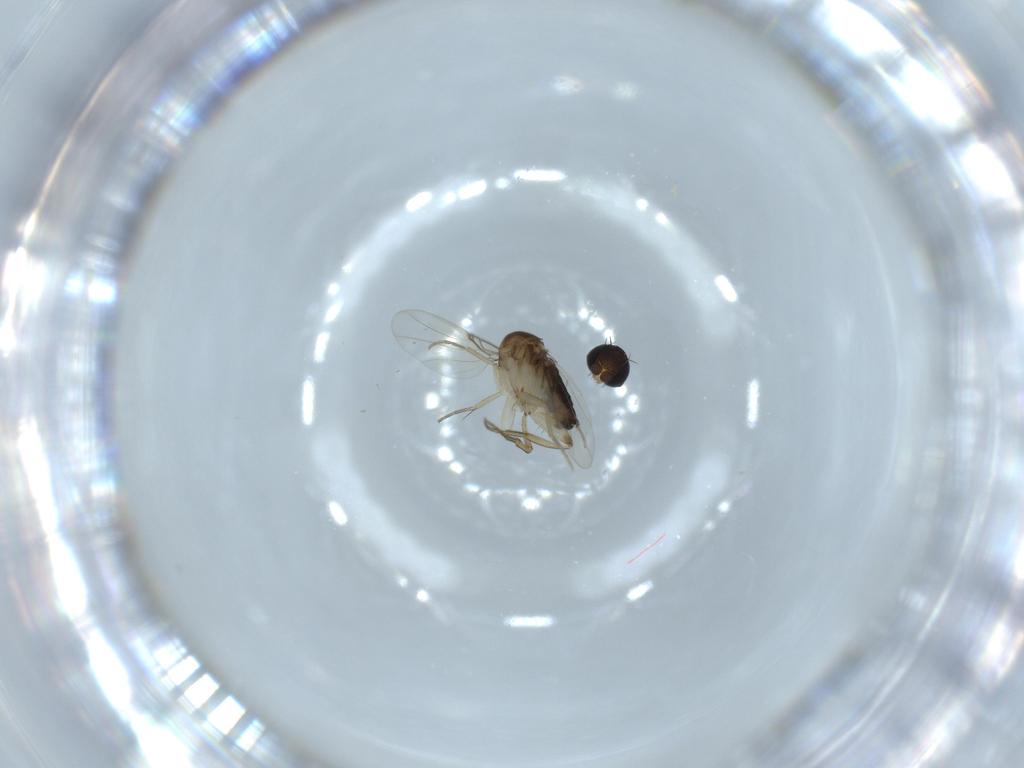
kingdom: Animalia
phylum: Arthropoda
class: Insecta
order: Diptera
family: Phoridae
